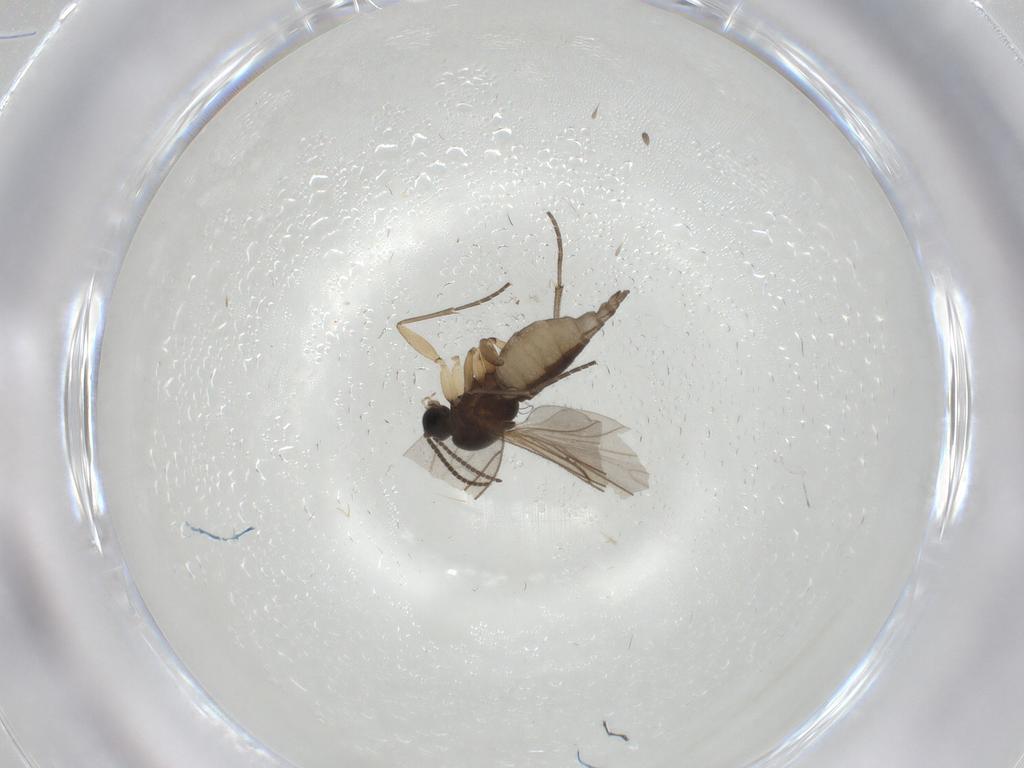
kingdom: Animalia
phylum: Arthropoda
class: Insecta
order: Diptera
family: Sciaridae
